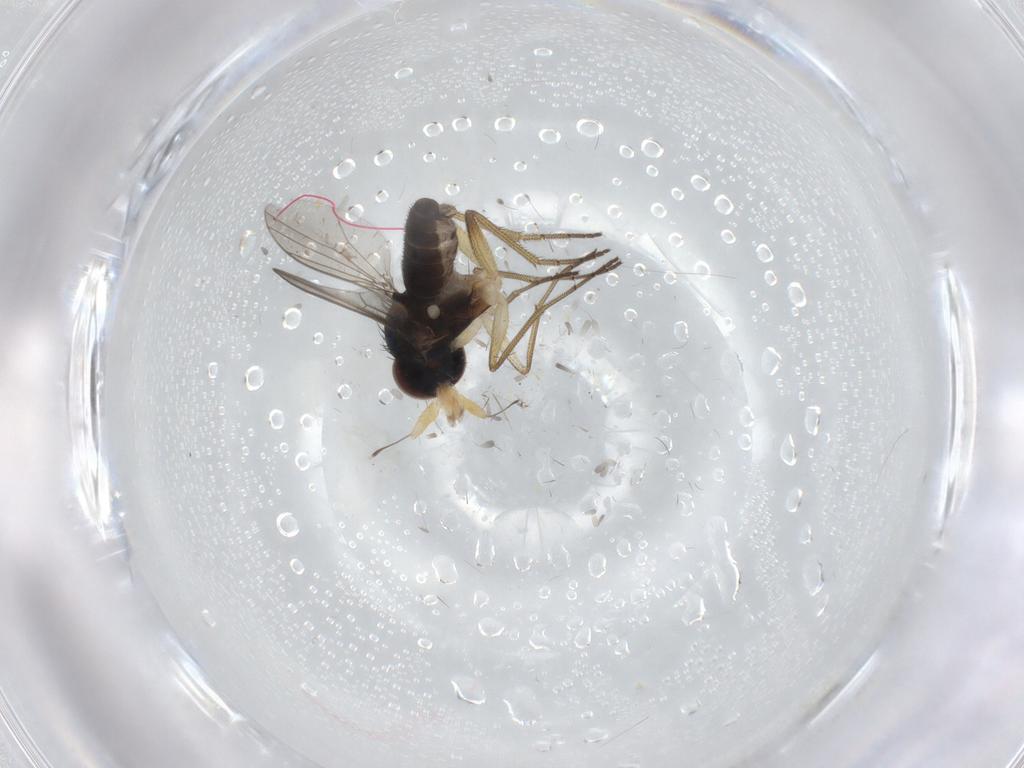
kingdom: Animalia
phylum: Arthropoda
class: Insecta
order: Diptera
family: Dolichopodidae
